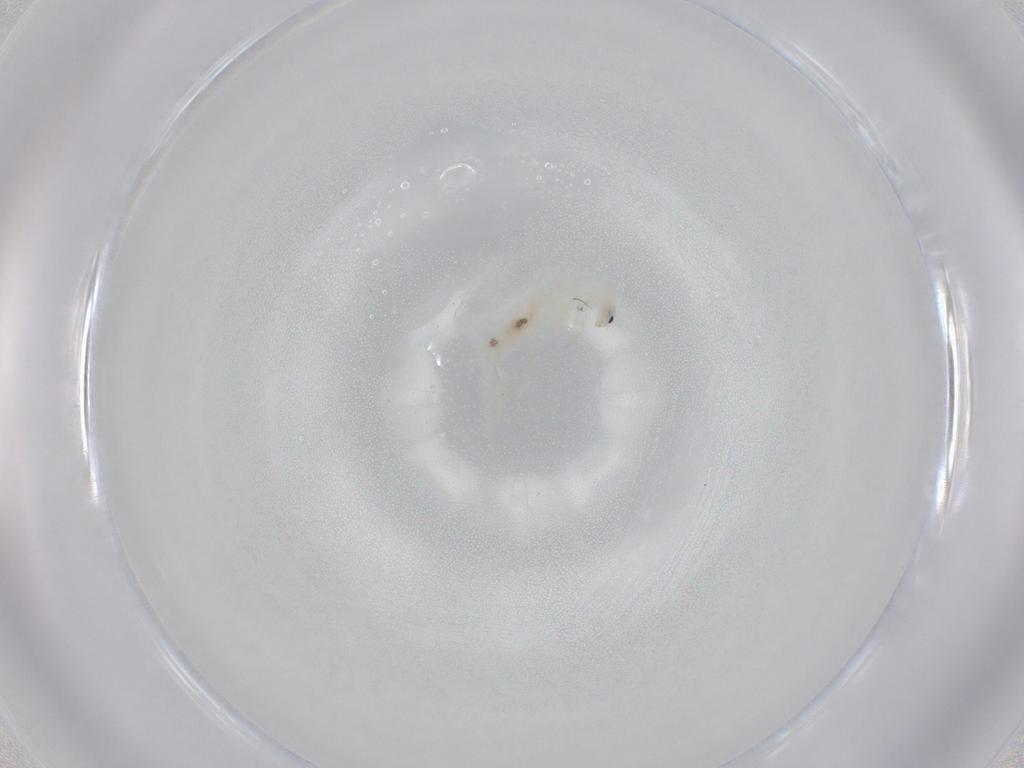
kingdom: Animalia
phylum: Arthropoda
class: Collembola
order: Entomobryomorpha
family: Entomobryidae
